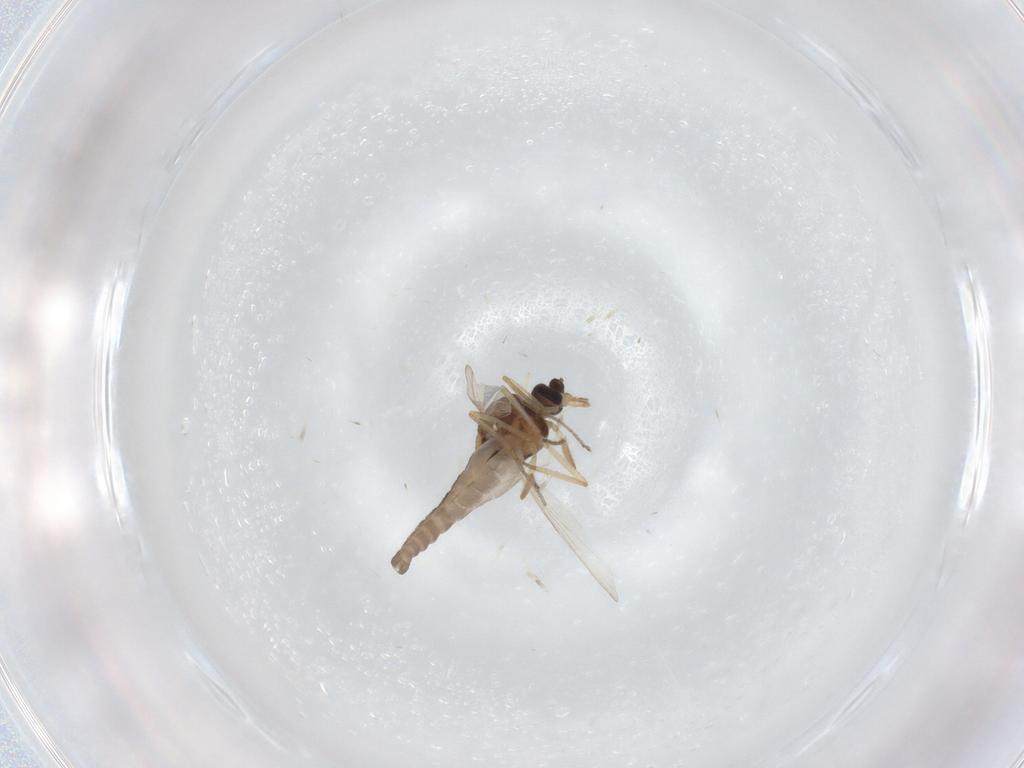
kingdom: Animalia
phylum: Arthropoda
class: Insecta
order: Diptera
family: Ceratopogonidae
